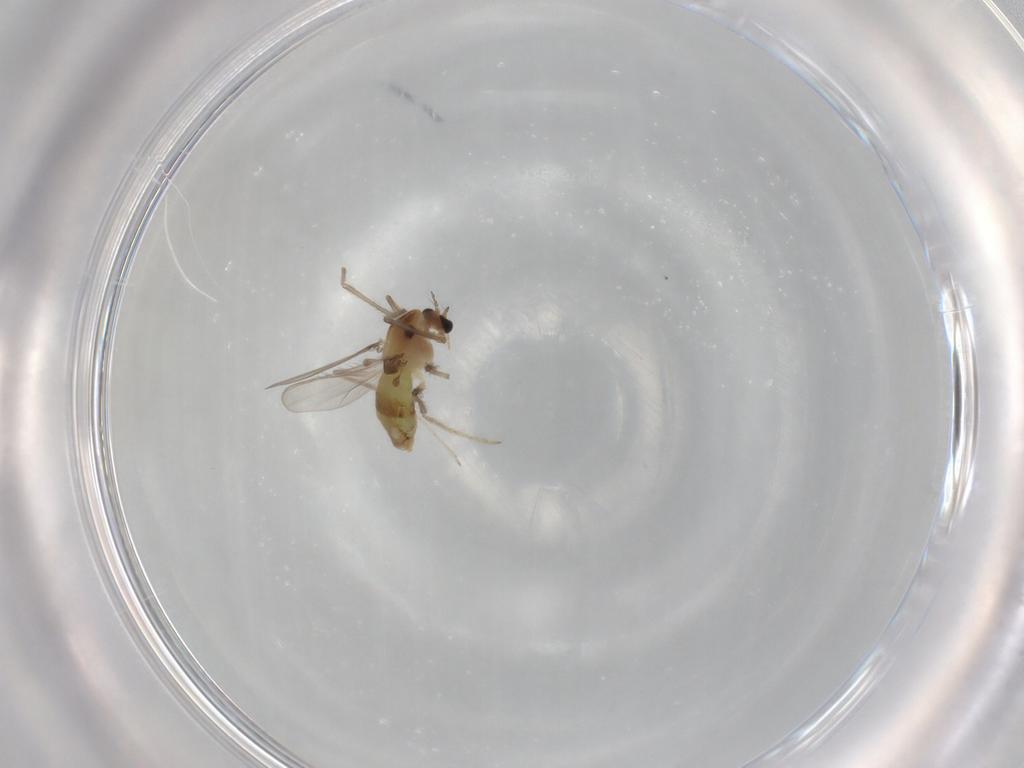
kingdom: Animalia
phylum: Arthropoda
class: Insecta
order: Diptera
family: Chironomidae
